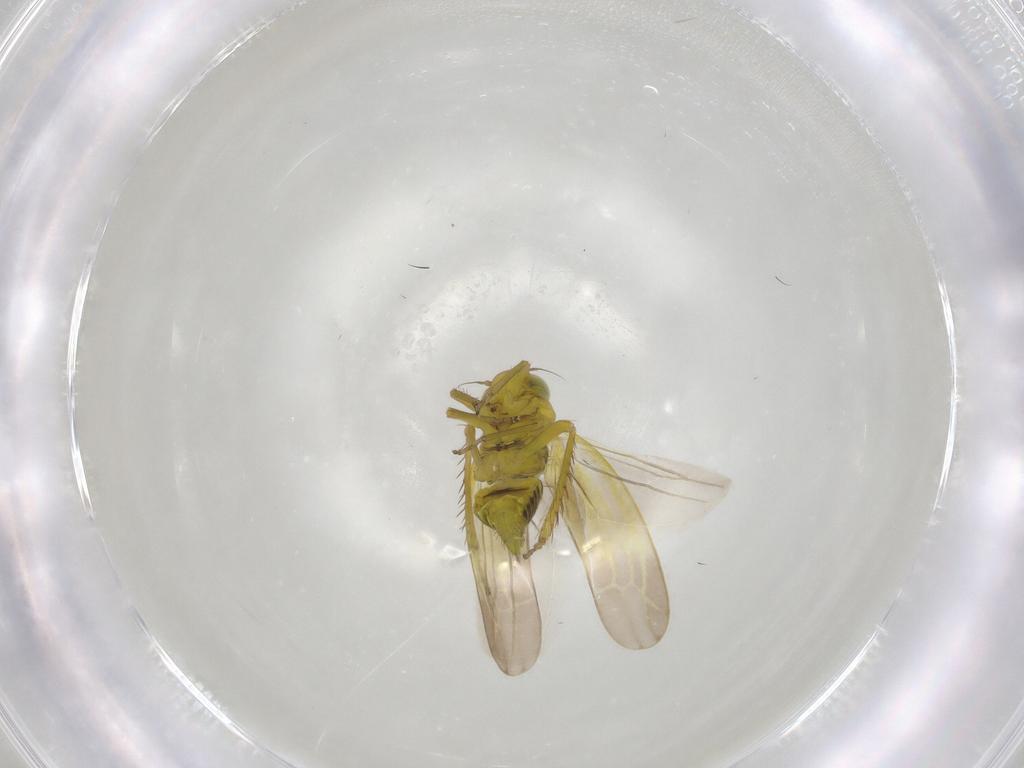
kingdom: Animalia
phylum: Arthropoda
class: Insecta
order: Hemiptera
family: Cicadellidae
